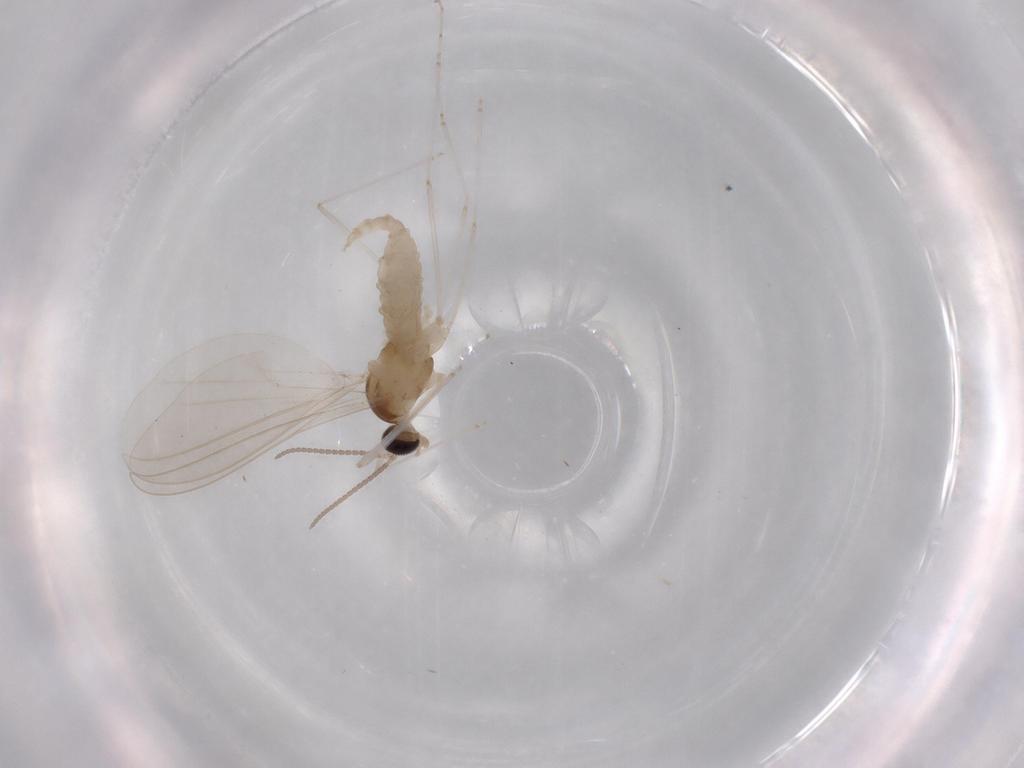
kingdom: Animalia
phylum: Arthropoda
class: Insecta
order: Diptera
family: Cecidomyiidae
